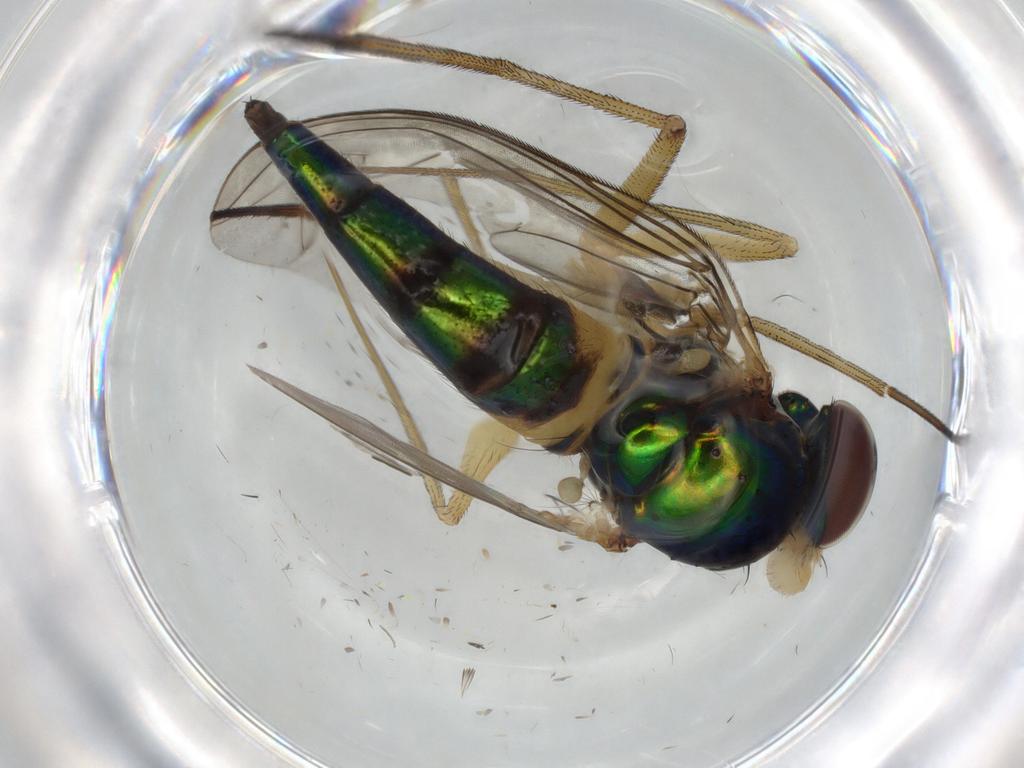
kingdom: Animalia
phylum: Arthropoda
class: Insecta
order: Diptera
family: Dolichopodidae
